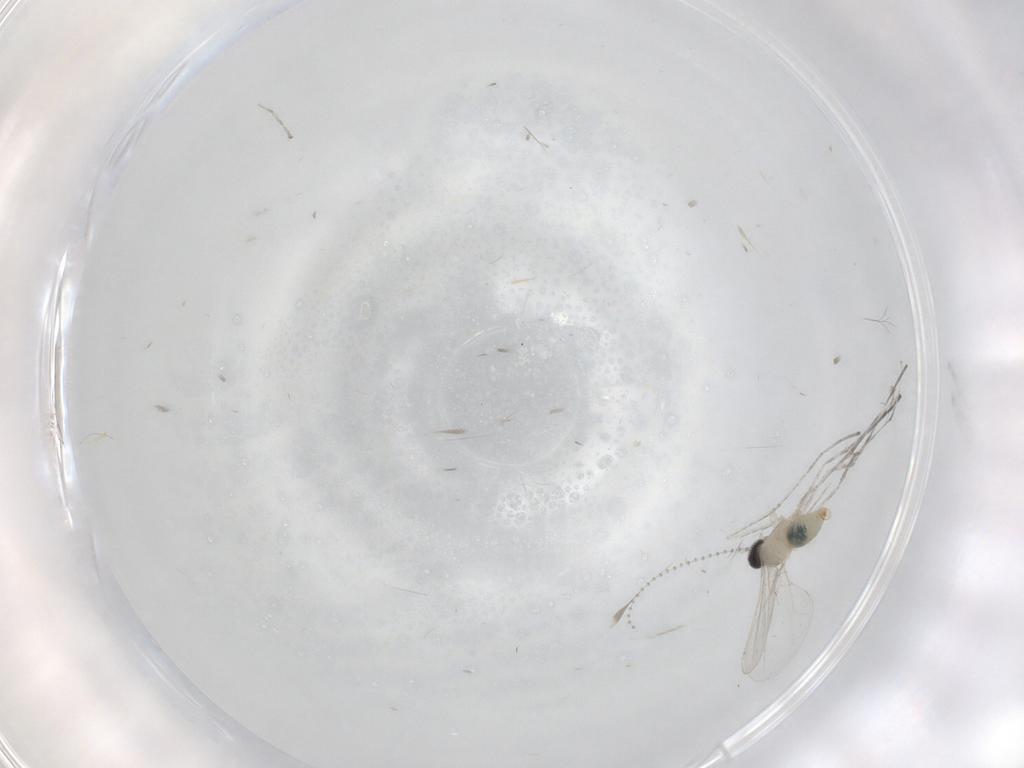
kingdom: Animalia
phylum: Arthropoda
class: Insecta
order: Diptera
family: Cecidomyiidae
